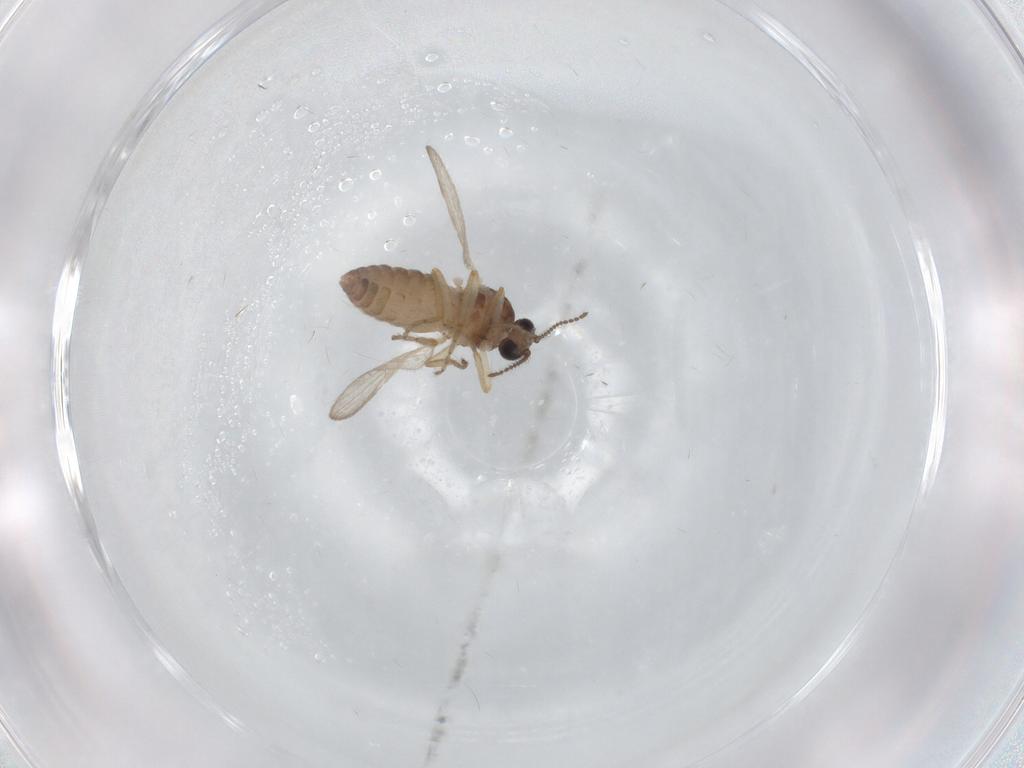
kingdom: Animalia
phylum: Arthropoda
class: Insecta
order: Diptera
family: Ceratopogonidae
